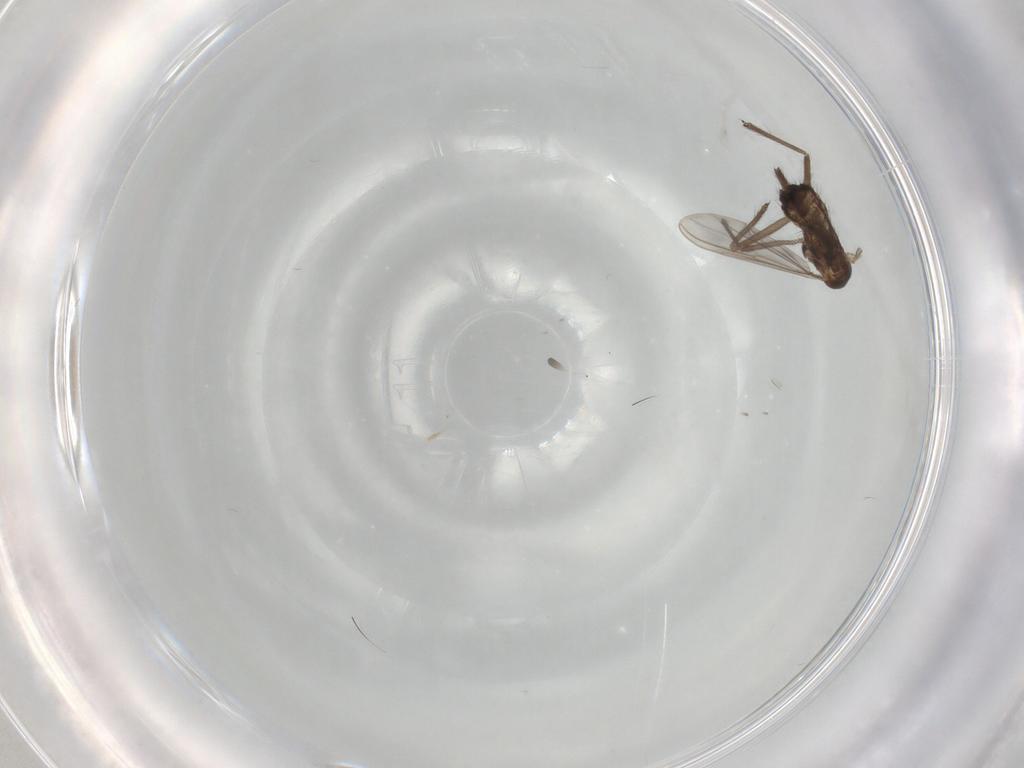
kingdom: Animalia
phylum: Arthropoda
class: Insecta
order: Diptera
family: Chironomidae
